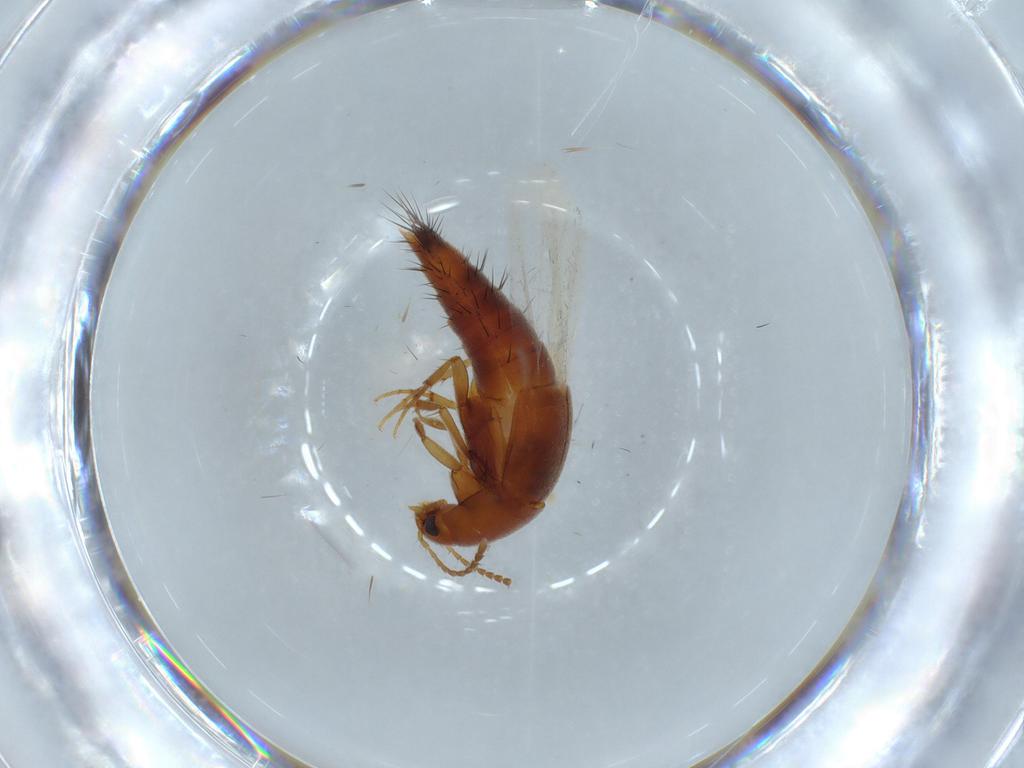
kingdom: Animalia
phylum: Arthropoda
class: Insecta
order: Coleoptera
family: Staphylinidae
